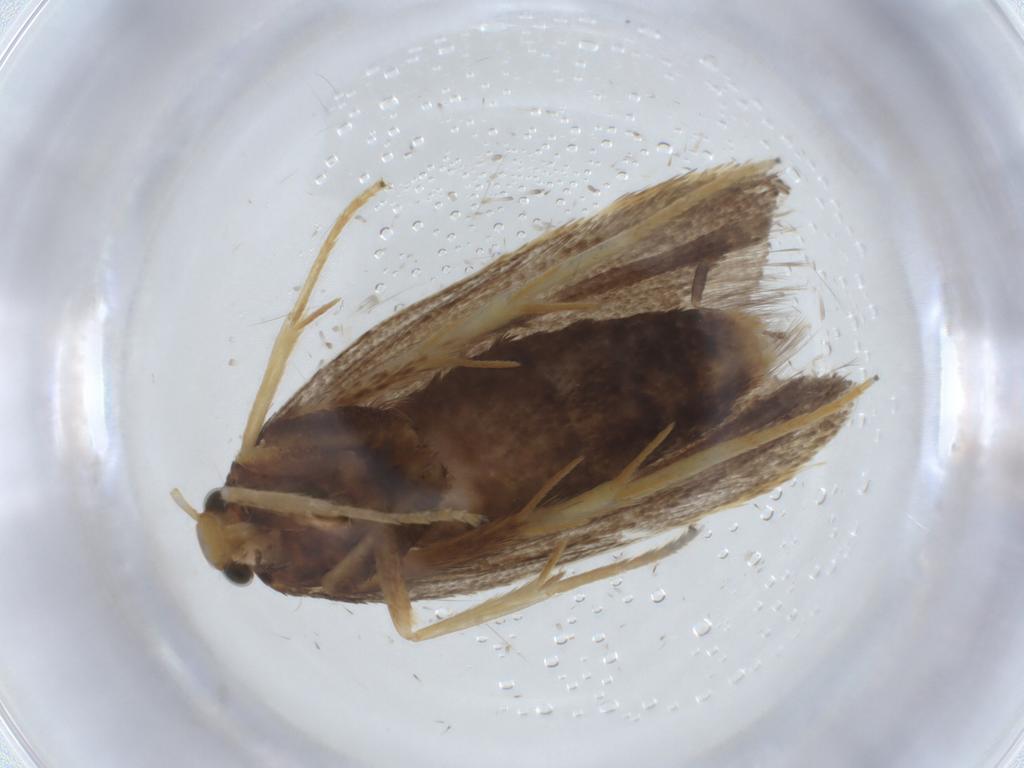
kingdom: Animalia
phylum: Arthropoda
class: Insecta
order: Lepidoptera
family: Lecithoceridae
